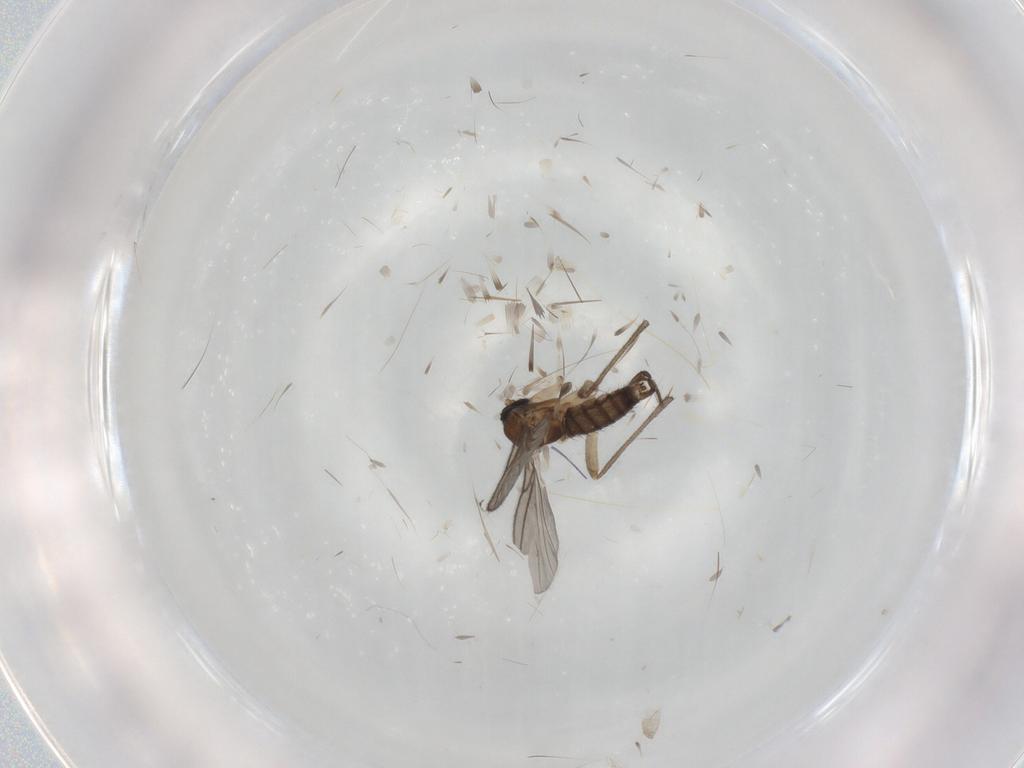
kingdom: Animalia
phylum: Arthropoda
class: Insecta
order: Diptera
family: Sciaridae
